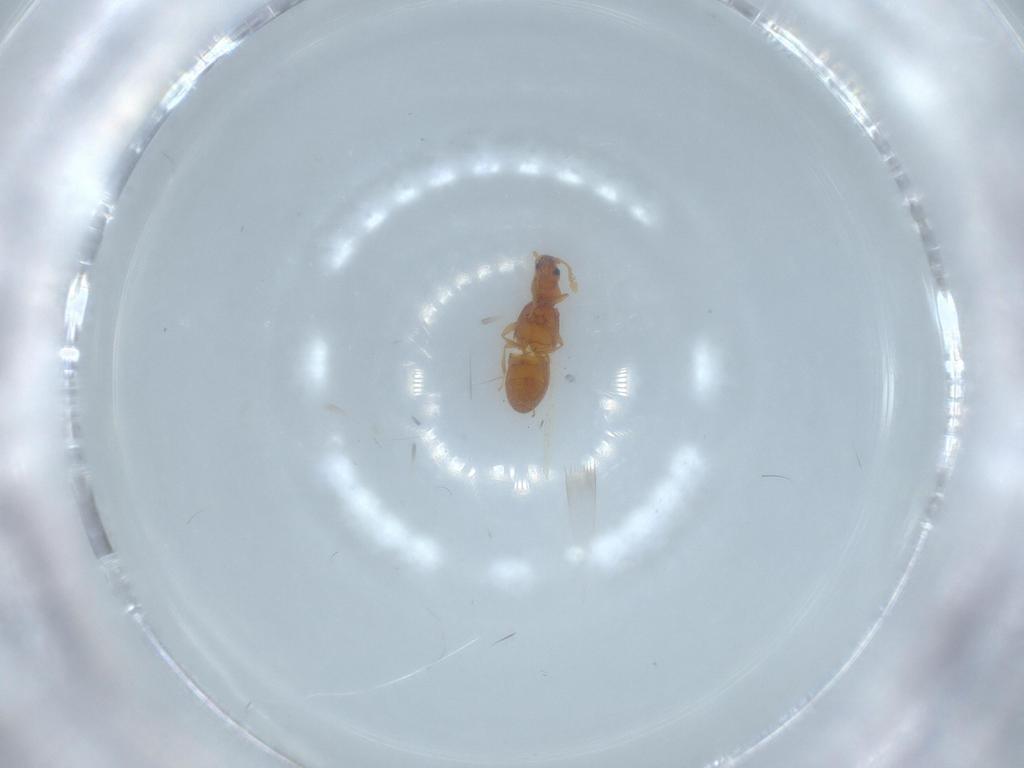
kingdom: Animalia
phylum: Arthropoda
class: Insecta
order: Coleoptera
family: Staphylinidae
